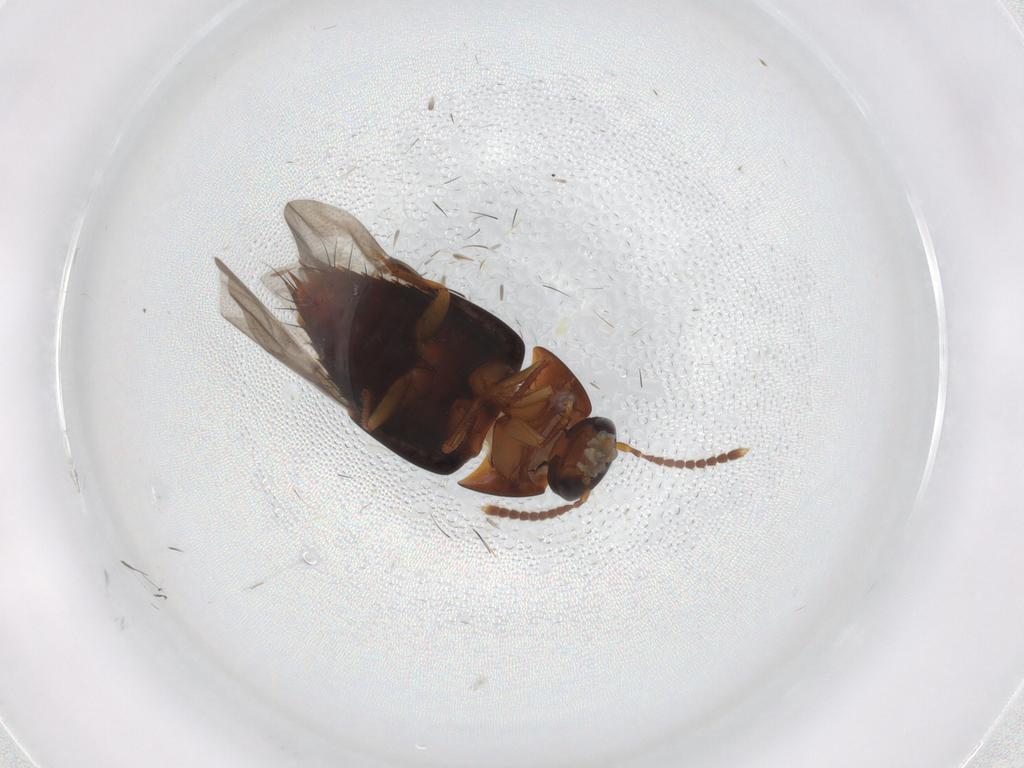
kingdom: Animalia
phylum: Arthropoda
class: Insecta
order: Coleoptera
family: Staphylinidae
